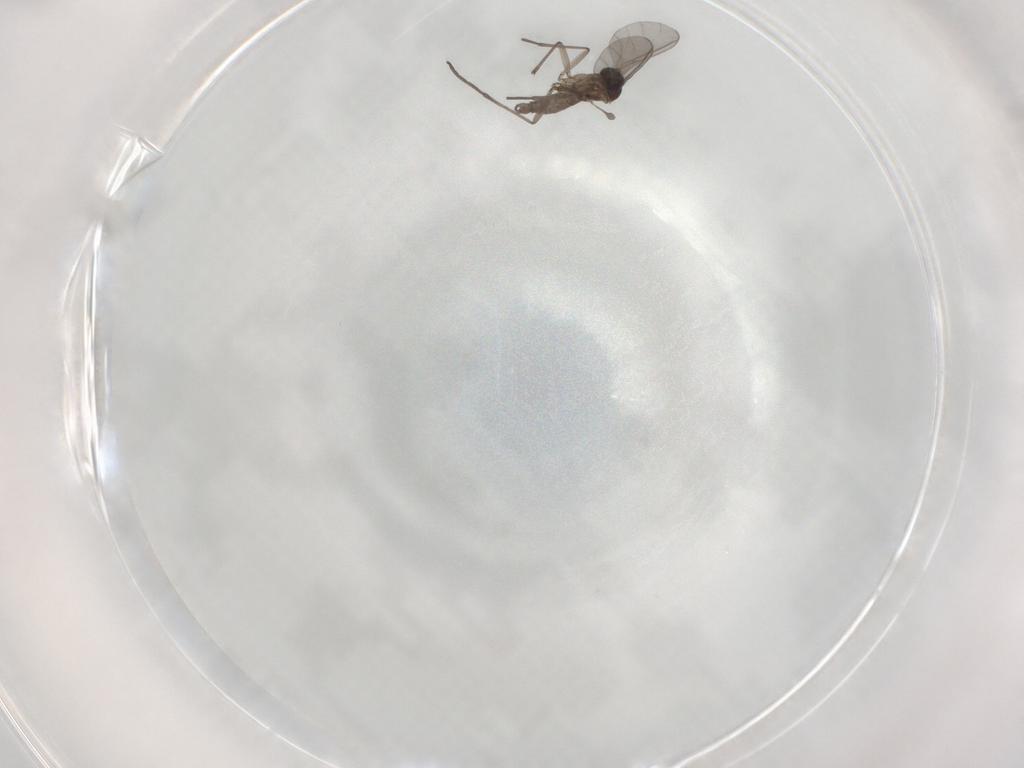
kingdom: Animalia
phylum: Arthropoda
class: Insecta
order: Diptera
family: Sciaridae
